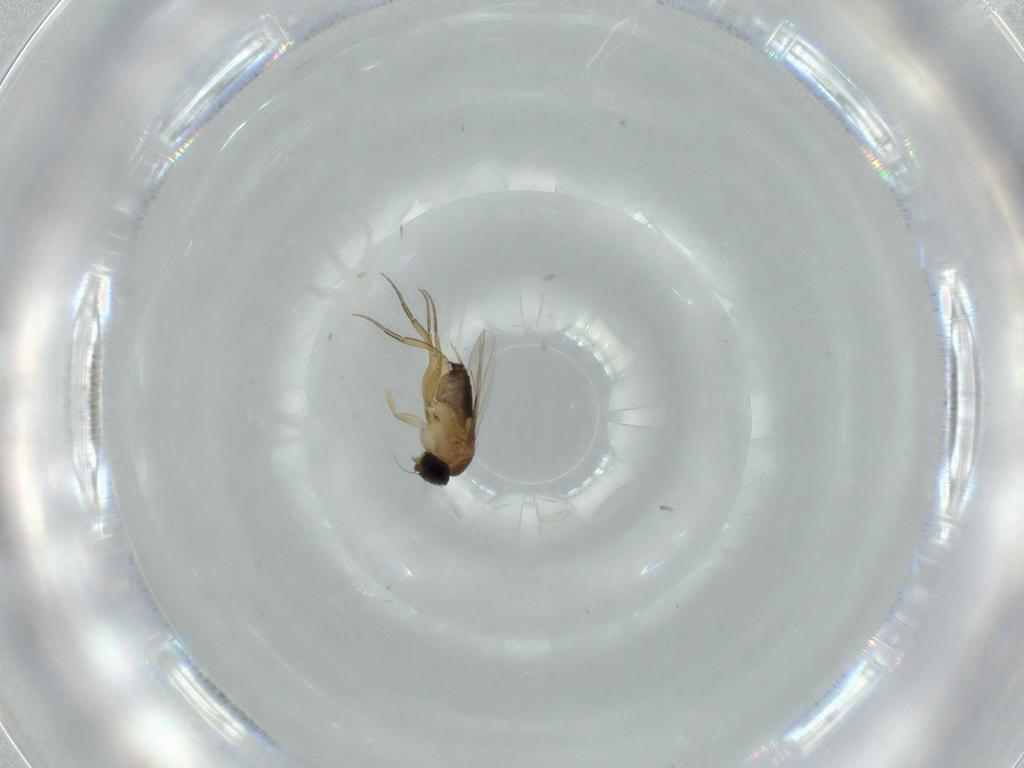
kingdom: Animalia
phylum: Arthropoda
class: Insecta
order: Diptera
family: Phoridae
